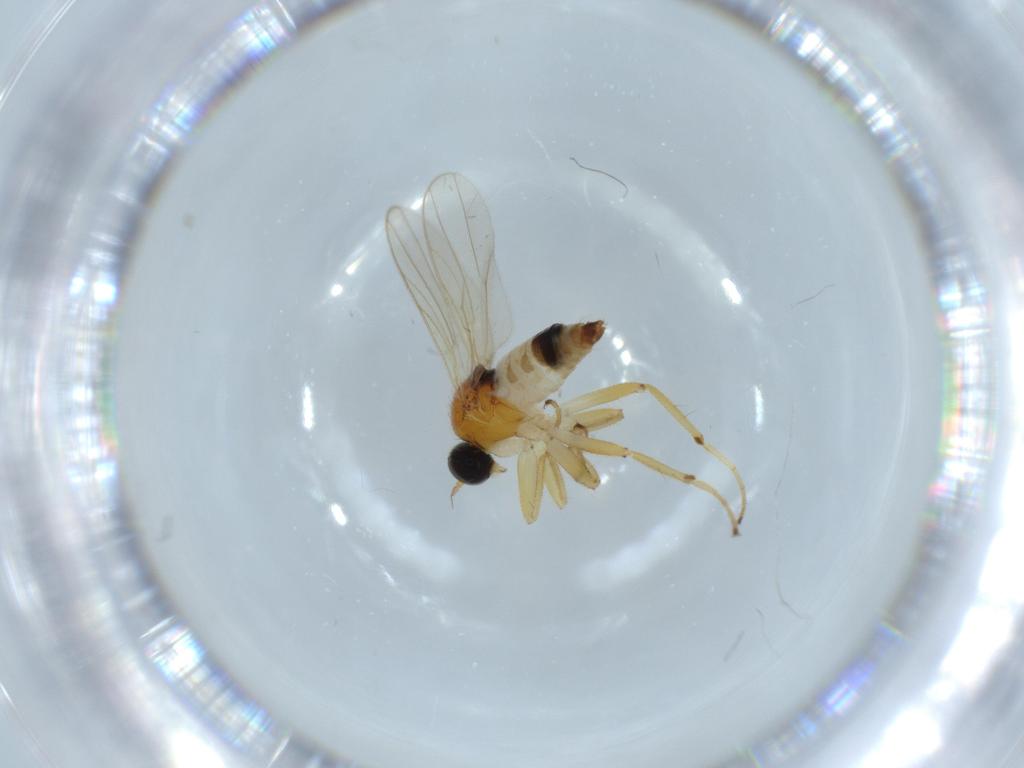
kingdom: Animalia
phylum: Arthropoda
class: Insecta
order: Diptera
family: Hybotidae
